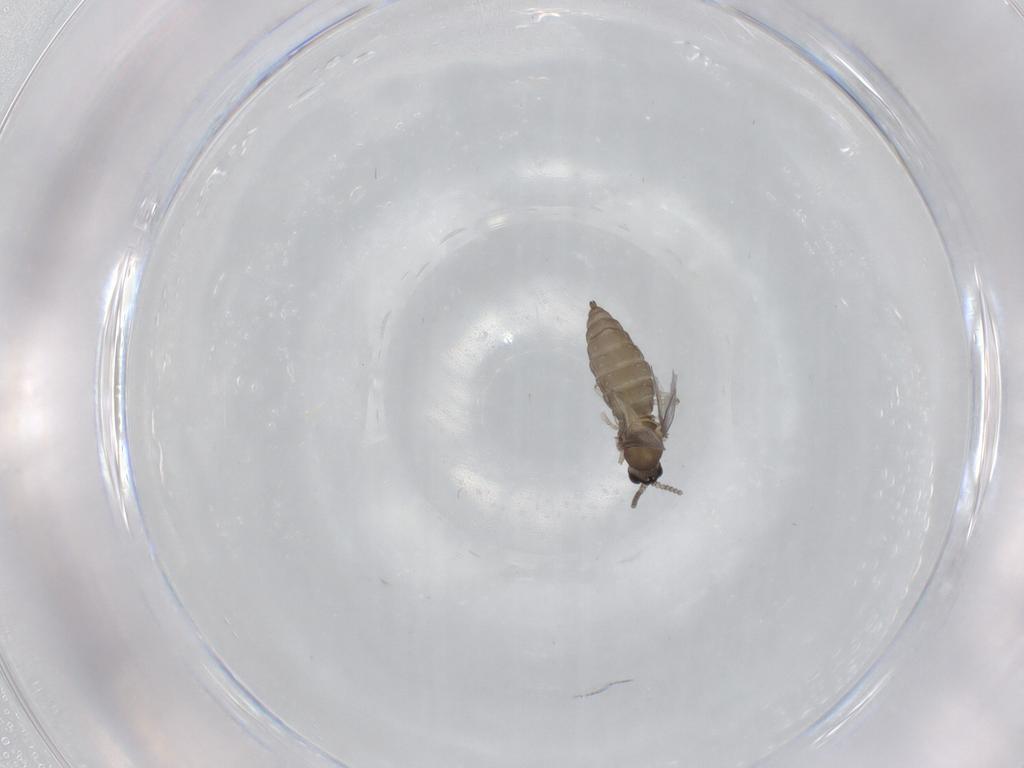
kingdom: Animalia
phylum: Arthropoda
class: Insecta
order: Diptera
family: Cecidomyiidae
